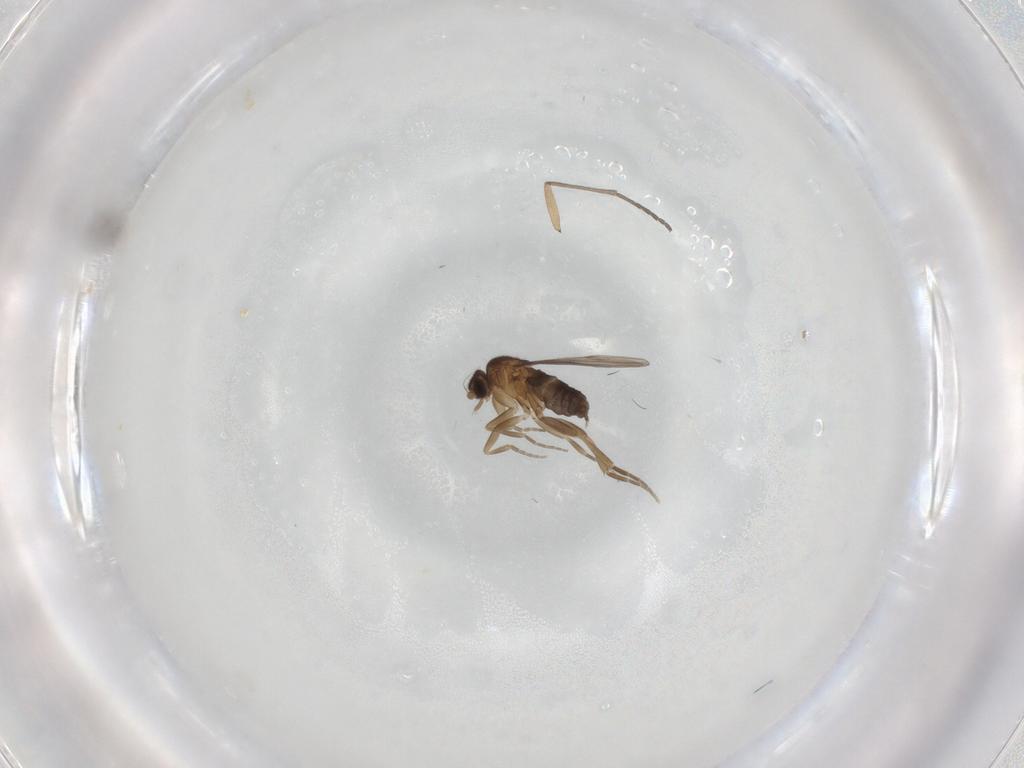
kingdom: Animalia
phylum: Arthropoda
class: Insecta
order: Diptera
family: Phoridae
